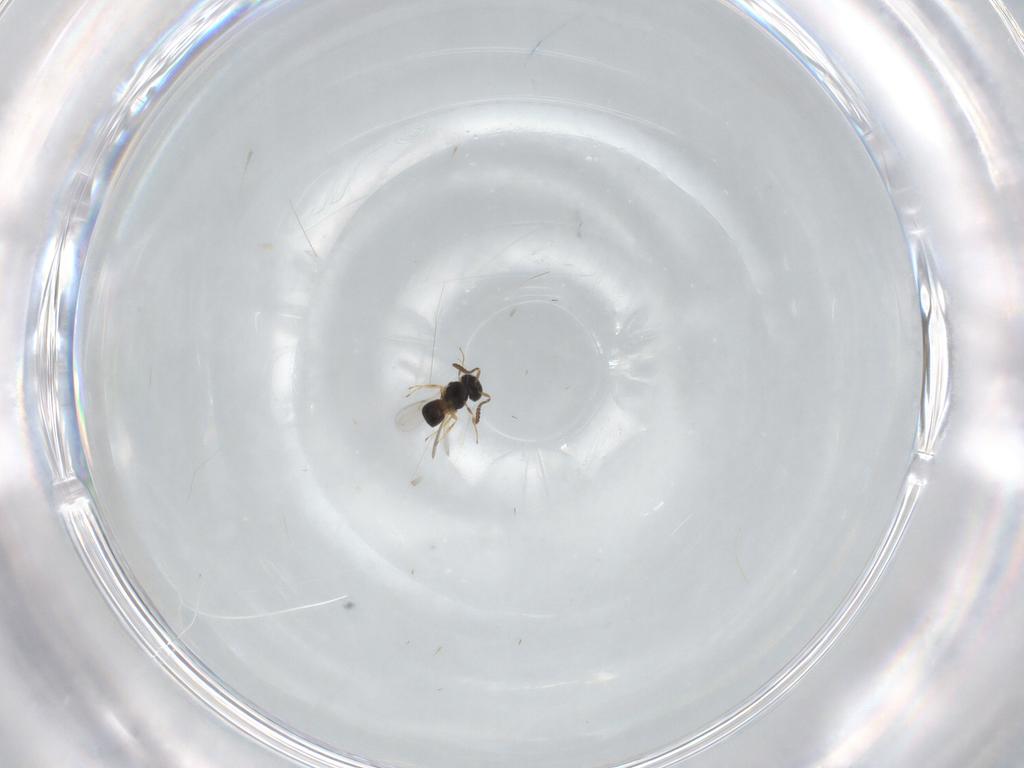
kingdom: Animalia
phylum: Arthropoda
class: Insecta
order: Hymenoptera
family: Scelionidae
